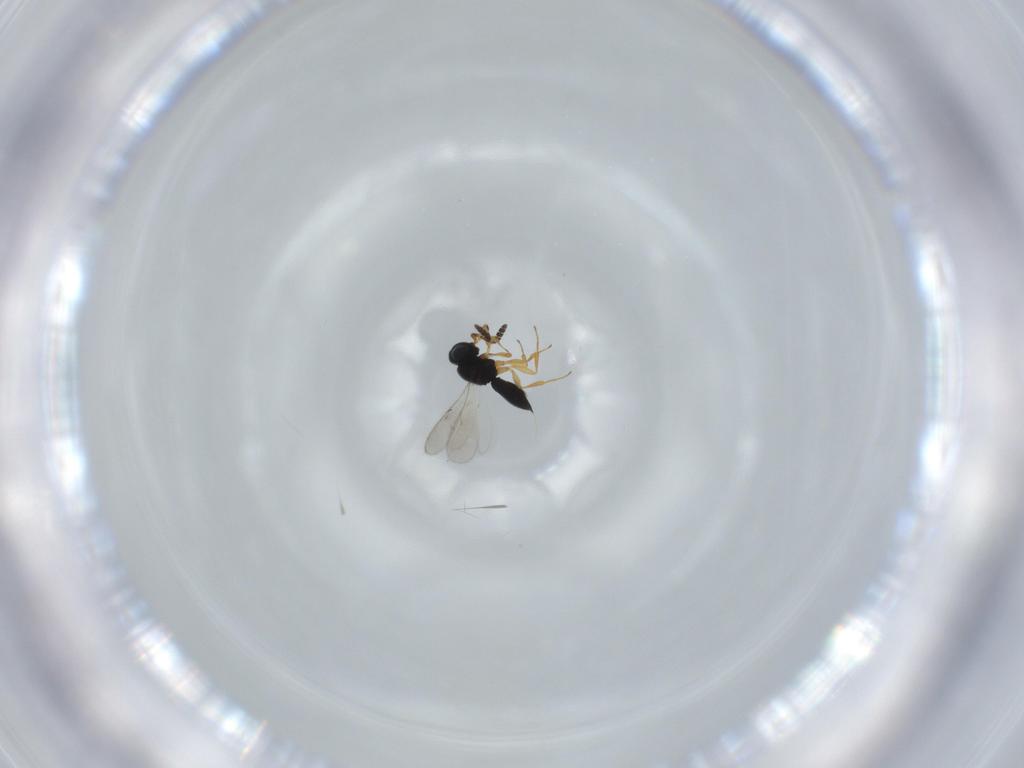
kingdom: Animalia
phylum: Arthropoda
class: Insecta
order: Hymenoptera
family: Scelionidae
